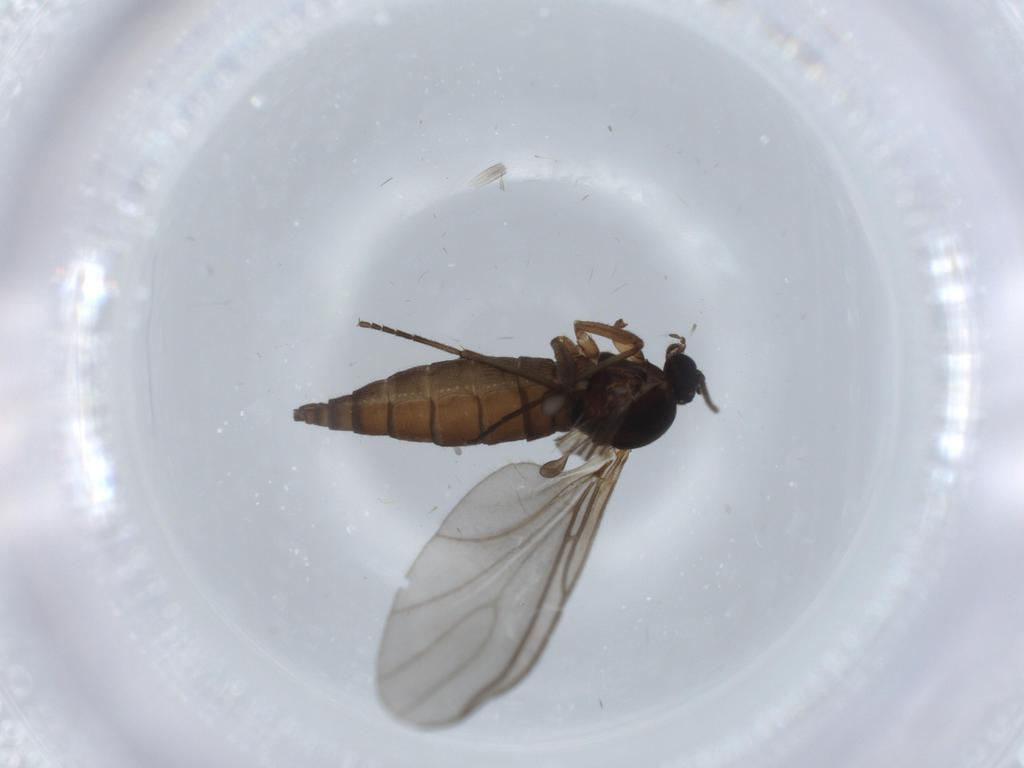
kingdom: Animalia
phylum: Arthropoda
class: Insecta
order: Diptera
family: Sciaridae
